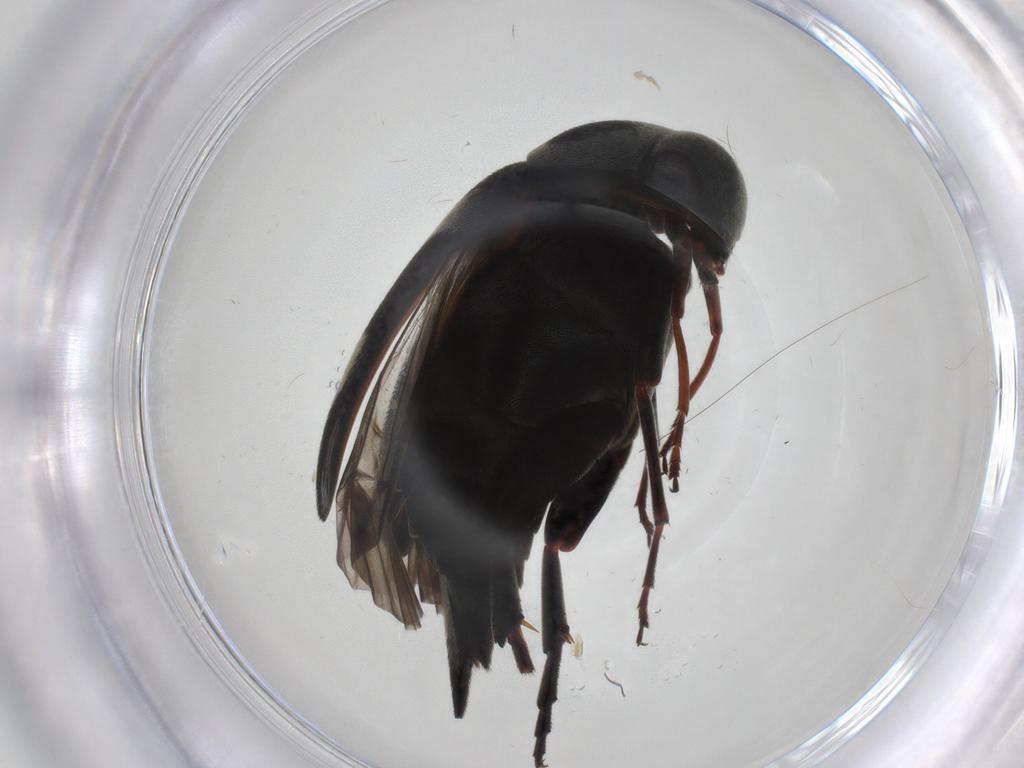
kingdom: Animalia
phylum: Arthropoda
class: Insecta
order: Coleoptera
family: Mordellidae
